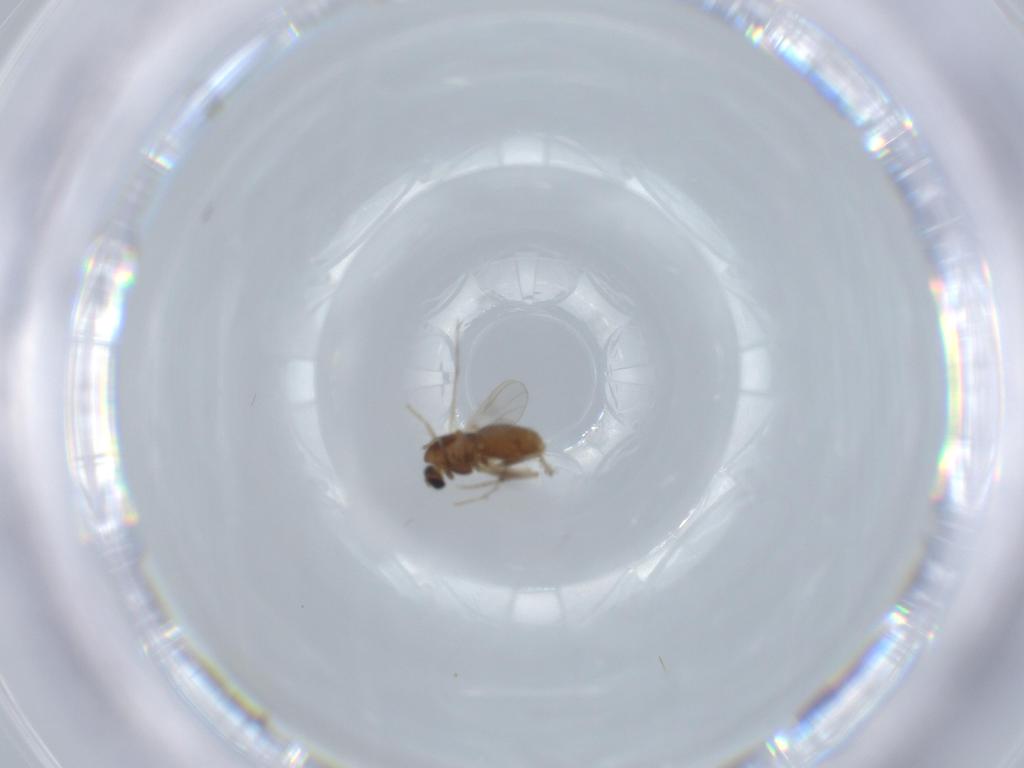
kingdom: Animalia
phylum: Arthropoda
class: Insecta
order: Diptera
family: Chironomidae
